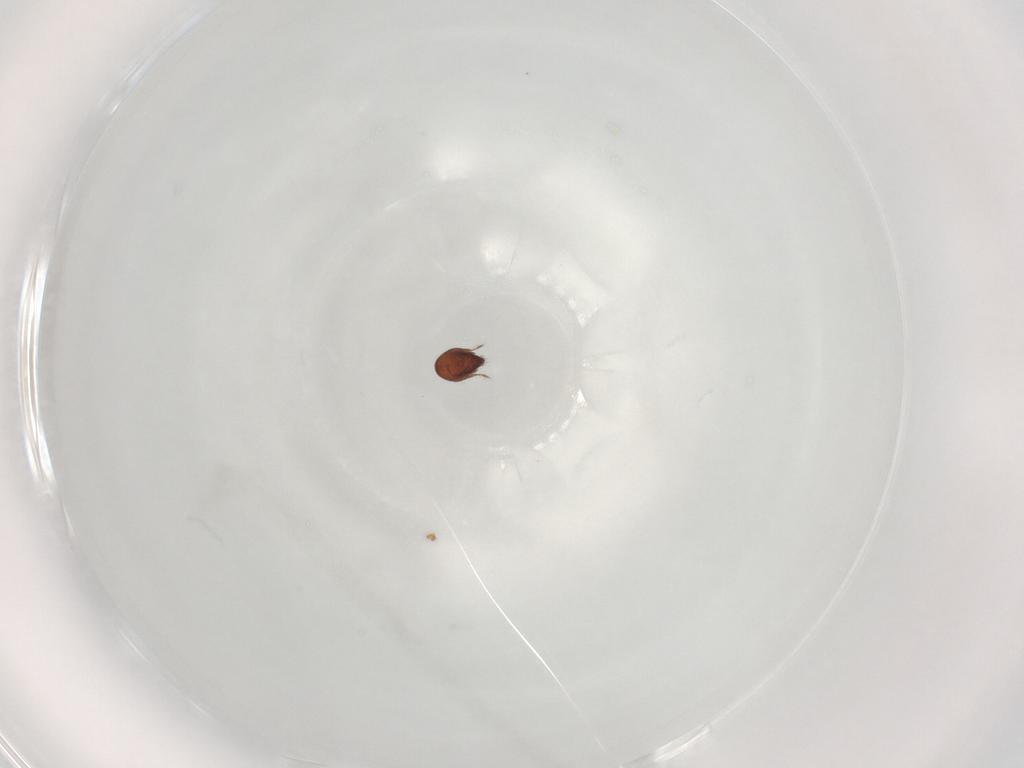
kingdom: Animalia
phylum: Arthropoda
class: Arachnida
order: Sarcoptiformes
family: Ceratozetidae
